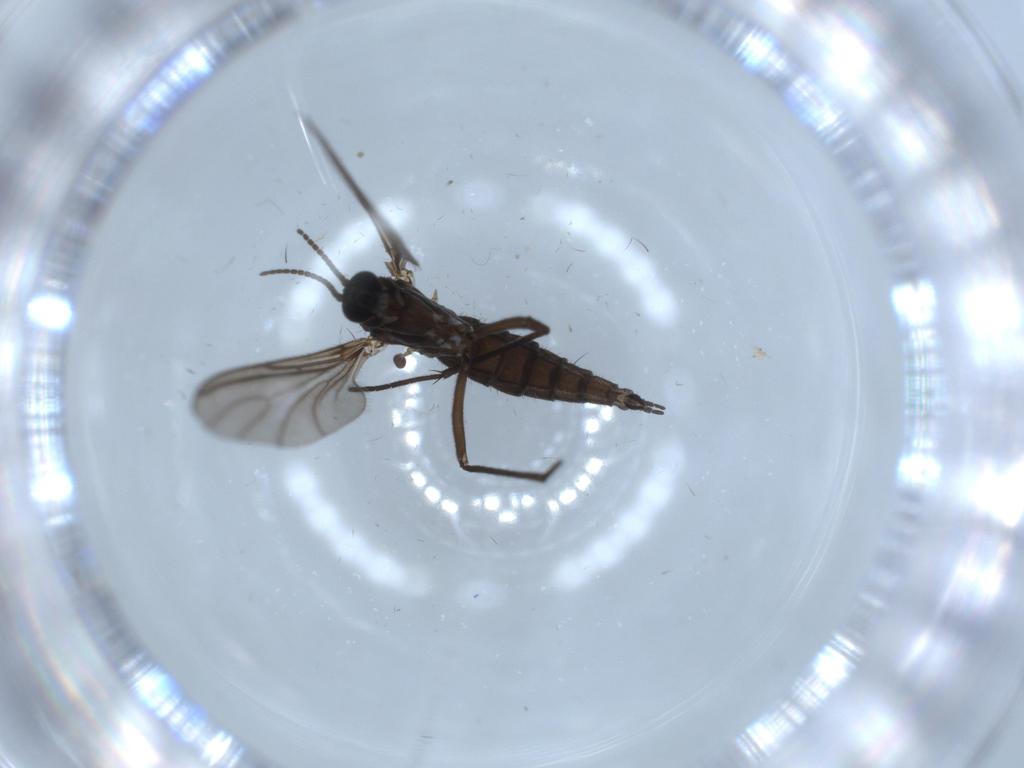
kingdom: Animalia
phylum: Arthropoda
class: Insecta
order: Diptera
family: Sciaridae
